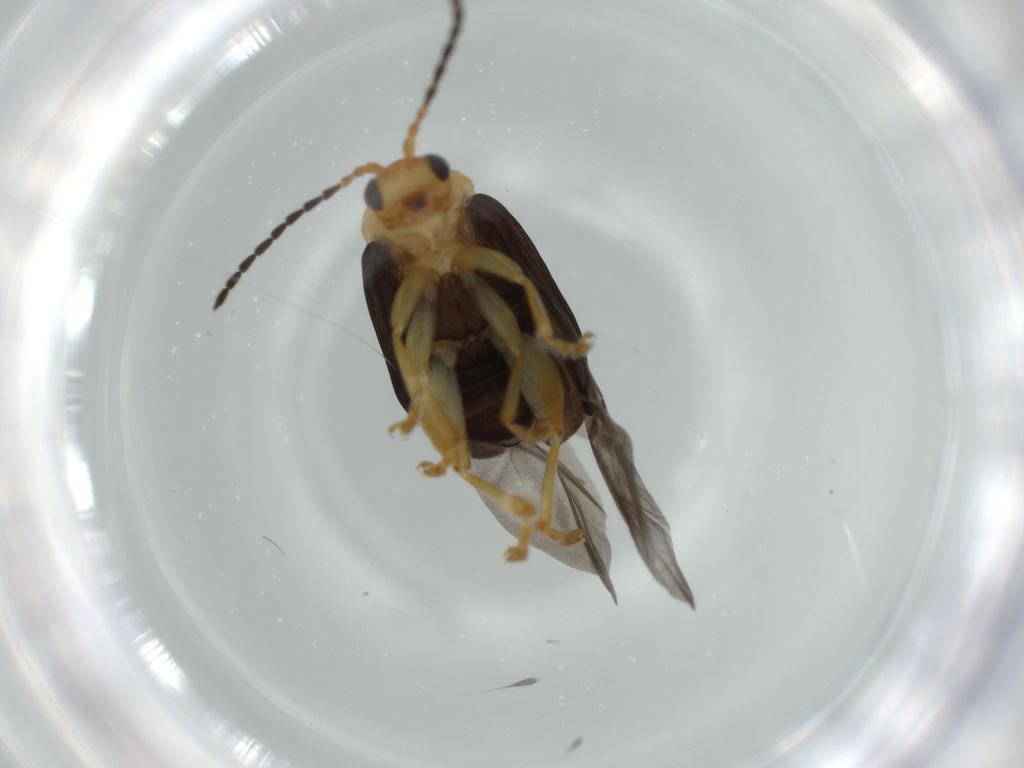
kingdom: Animalia
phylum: Arthropoda
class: Insecta
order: Coleoptera
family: Chrysomelidae
